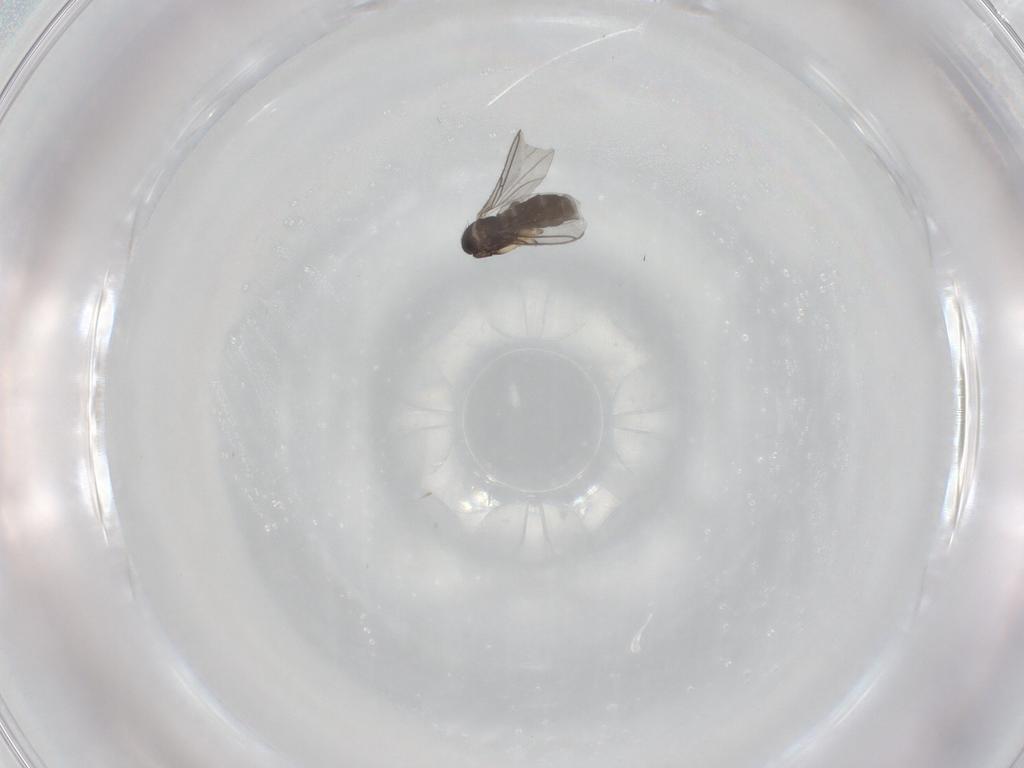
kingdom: Animalia
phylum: Arthropoda
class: Insecta
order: Diptera
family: Sciaridae
